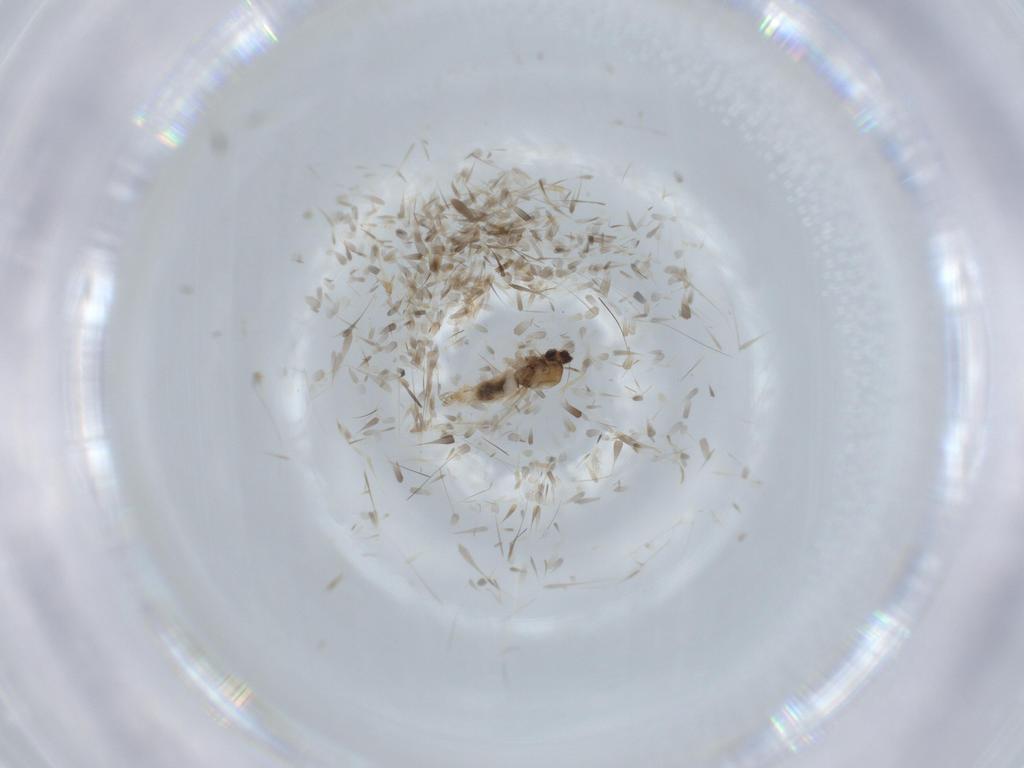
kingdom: Animalia
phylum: Arthropoda
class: Insecta
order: Diptera
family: Cecidomyiidae
